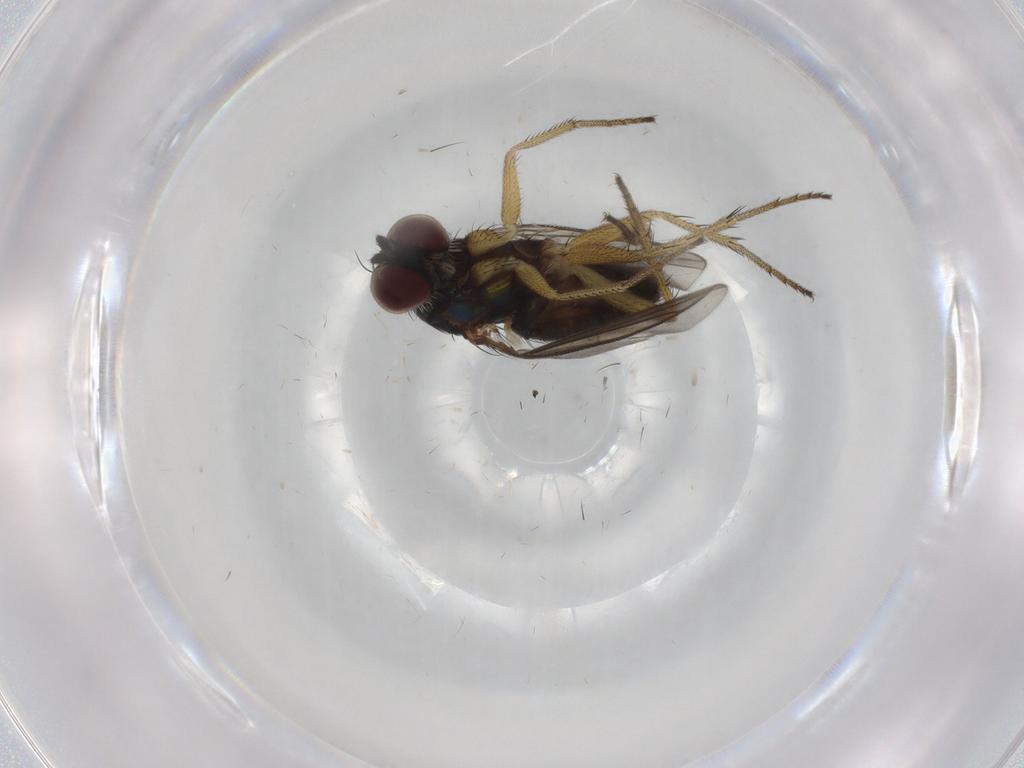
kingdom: Animalia
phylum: Arthropoda
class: Insecta
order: Diptera
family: Dolichopodidae
